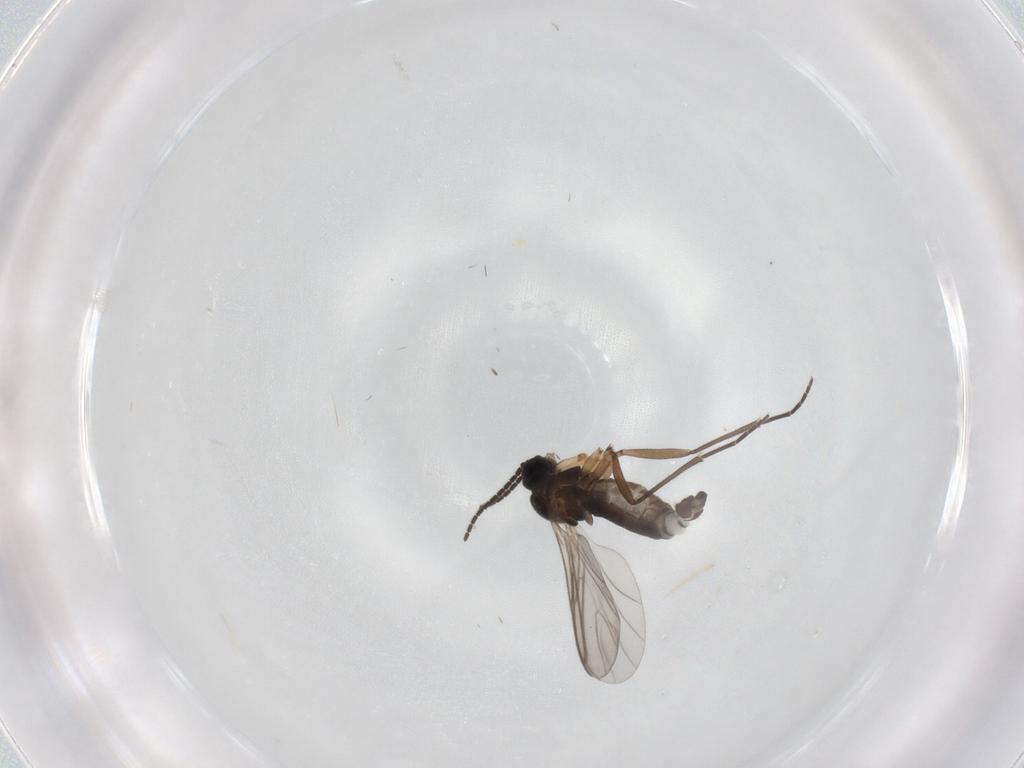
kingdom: Animalia
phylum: Arthropoda
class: Insecta
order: Diptera
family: Sciaridae
